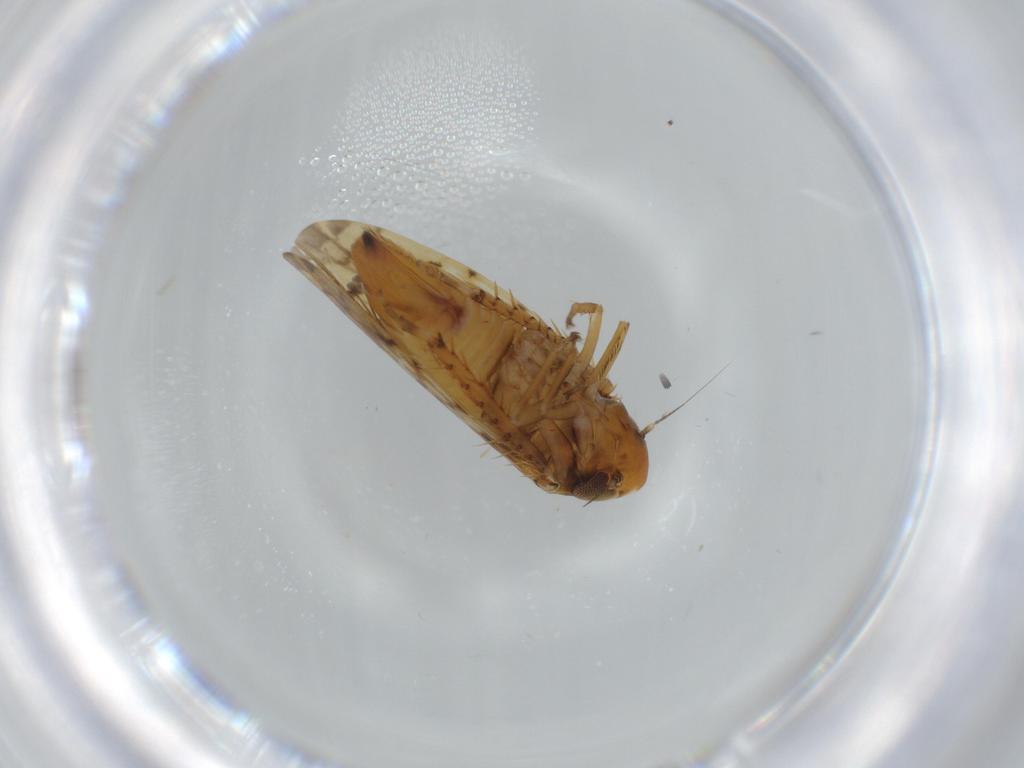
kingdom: Animalia
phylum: Arthropoda
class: Insecta
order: Hemiptera
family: Cicadellidae
